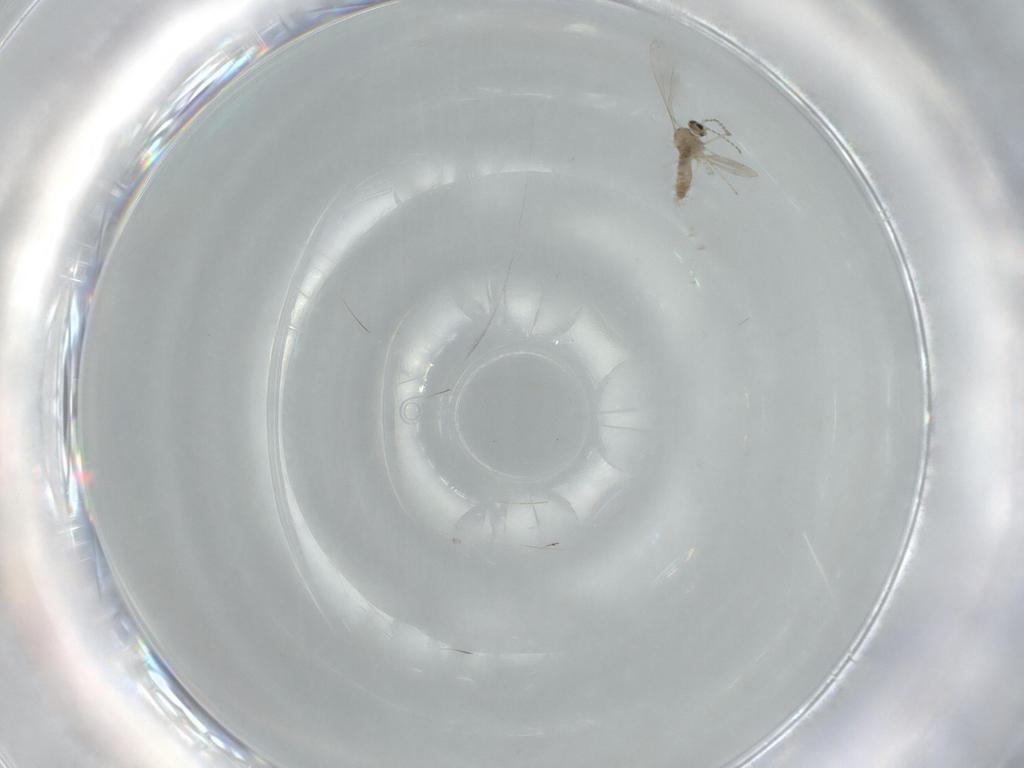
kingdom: Animalia
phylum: Arthropoda
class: Insecta
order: Diptera
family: Cecidomyiidae
